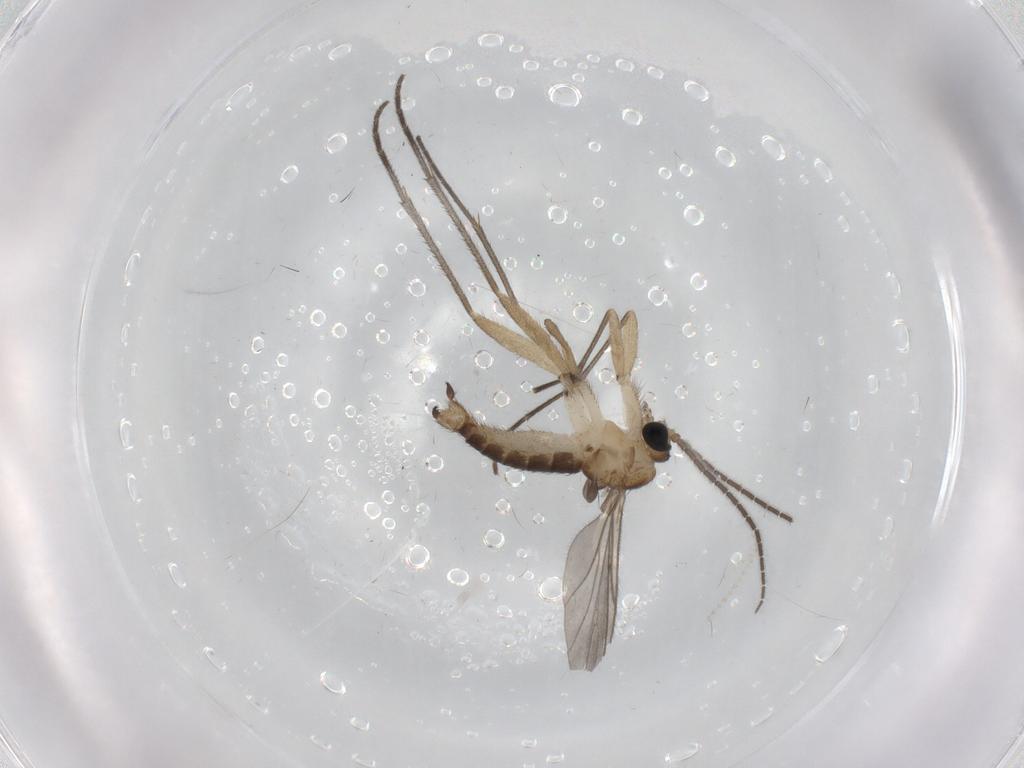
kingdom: Animalia
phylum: Arthropoda
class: Insecta
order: Diptera
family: Sciaridae
